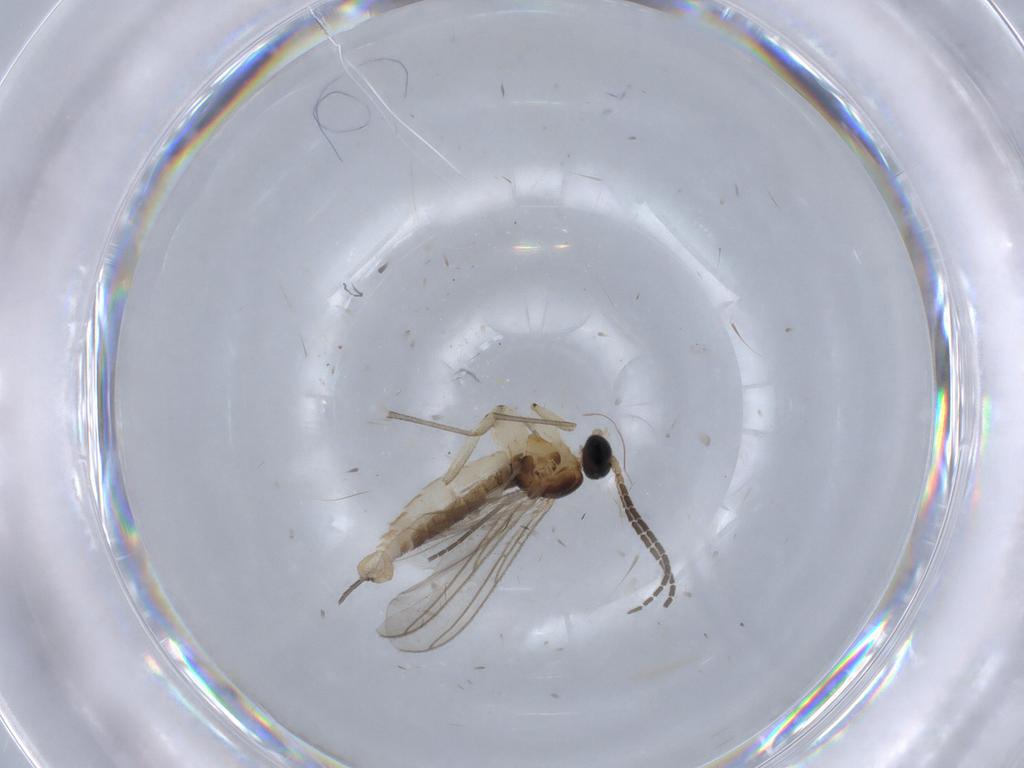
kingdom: Animalia
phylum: Arthropoda
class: Insecta
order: Diptera
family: Sciaridae
